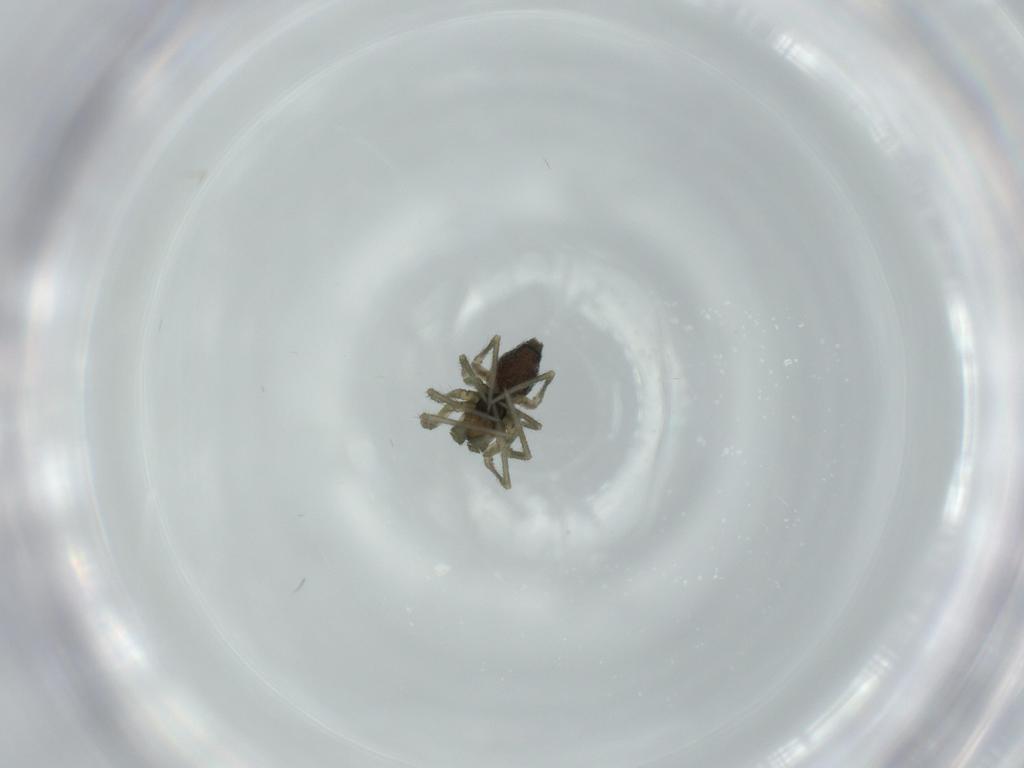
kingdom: Animalia
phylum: Arthropoda
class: Arachnida
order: Araneae
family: Linyphiidae
